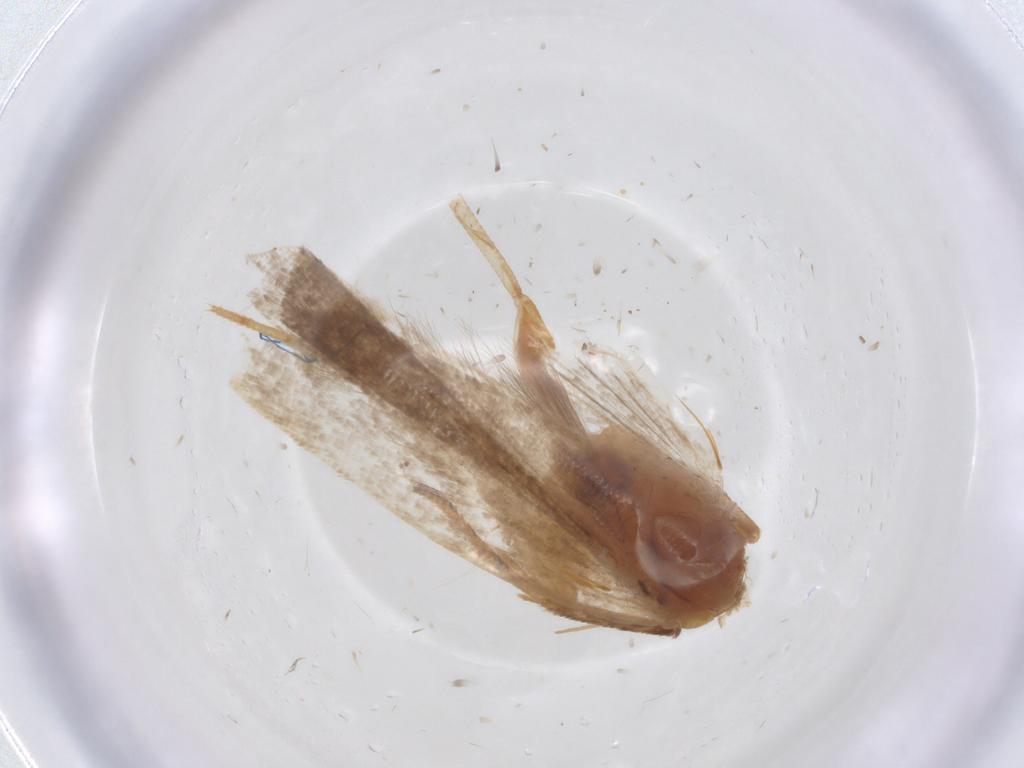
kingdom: Animalia
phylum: Arthropoda
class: Insecta
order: Lepidoptera
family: Gelechiidae
